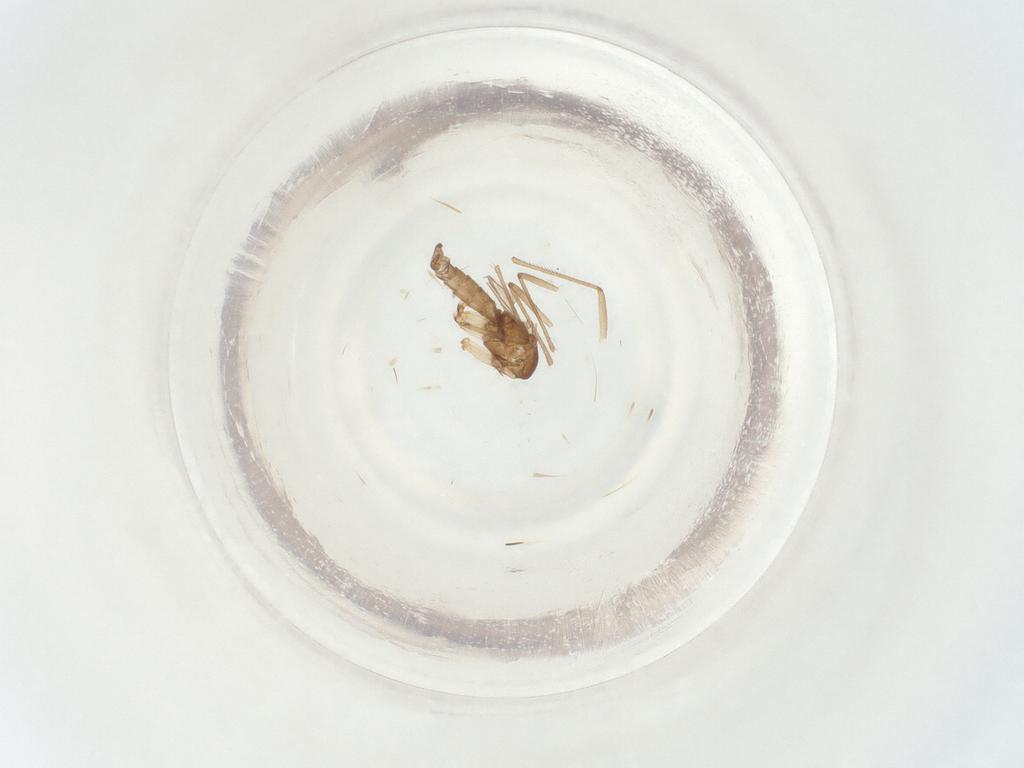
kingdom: Animalia
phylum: Arthropoda
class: Insecta
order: Diptera
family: Sciaridae
